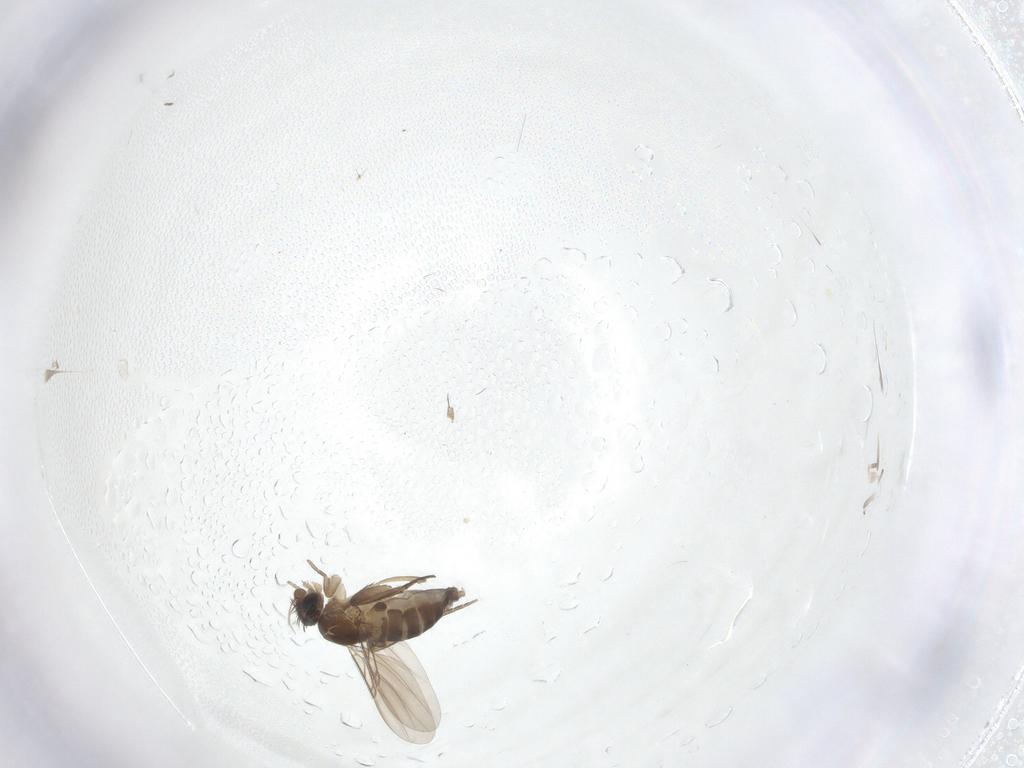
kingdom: Animalia
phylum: Arthropoda
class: Insecta
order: Diptera
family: Phoridae
